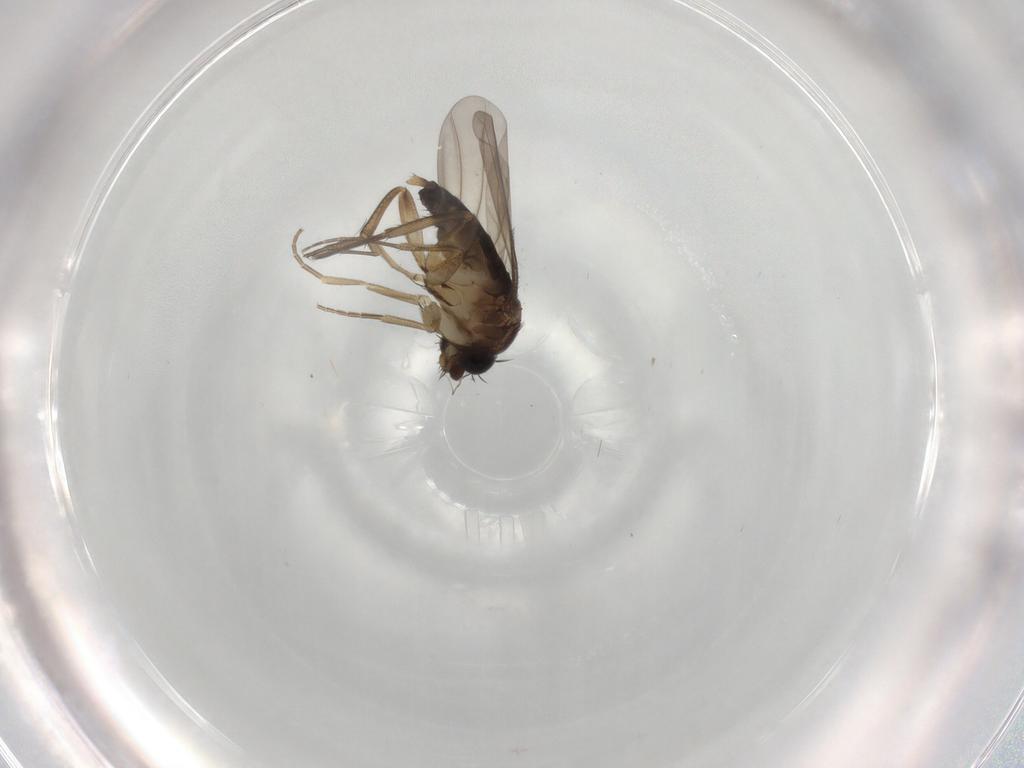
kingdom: Animalia
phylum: Arthropoda
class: Insecta
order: Diptera
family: Phoridae
